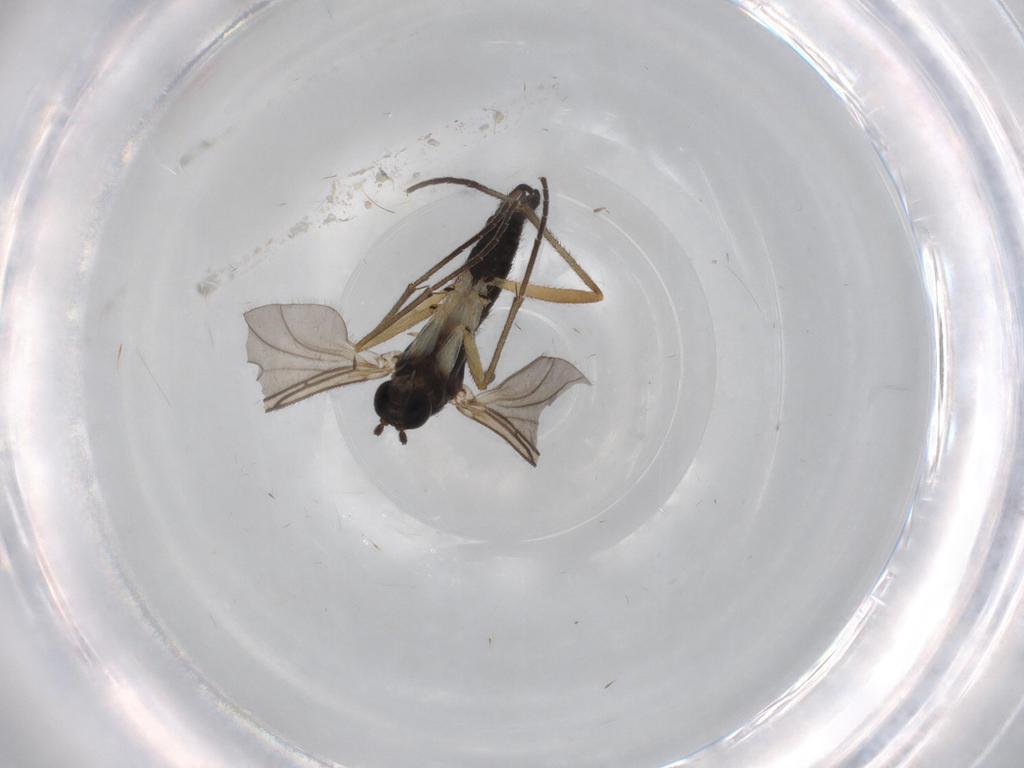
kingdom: Animalia
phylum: Arthropoda
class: Insecta
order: Diptera
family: Sciaridae
